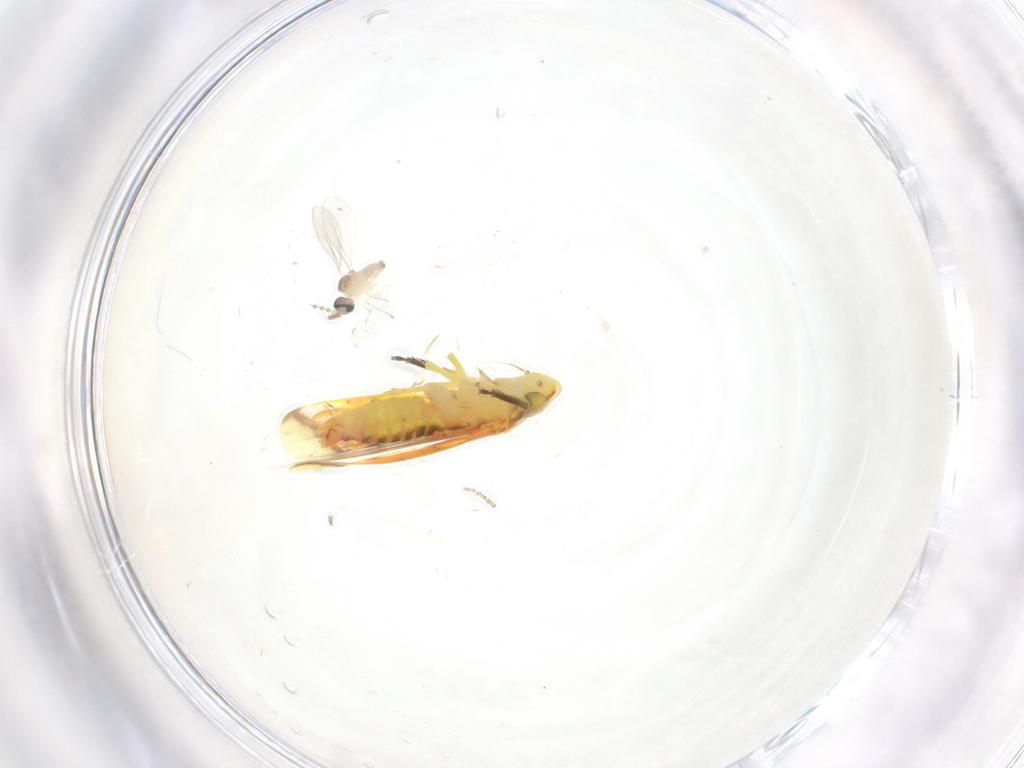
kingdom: Animalia
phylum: Arthropoda
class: Insecta
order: Diptera
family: Cecidomyiidae
